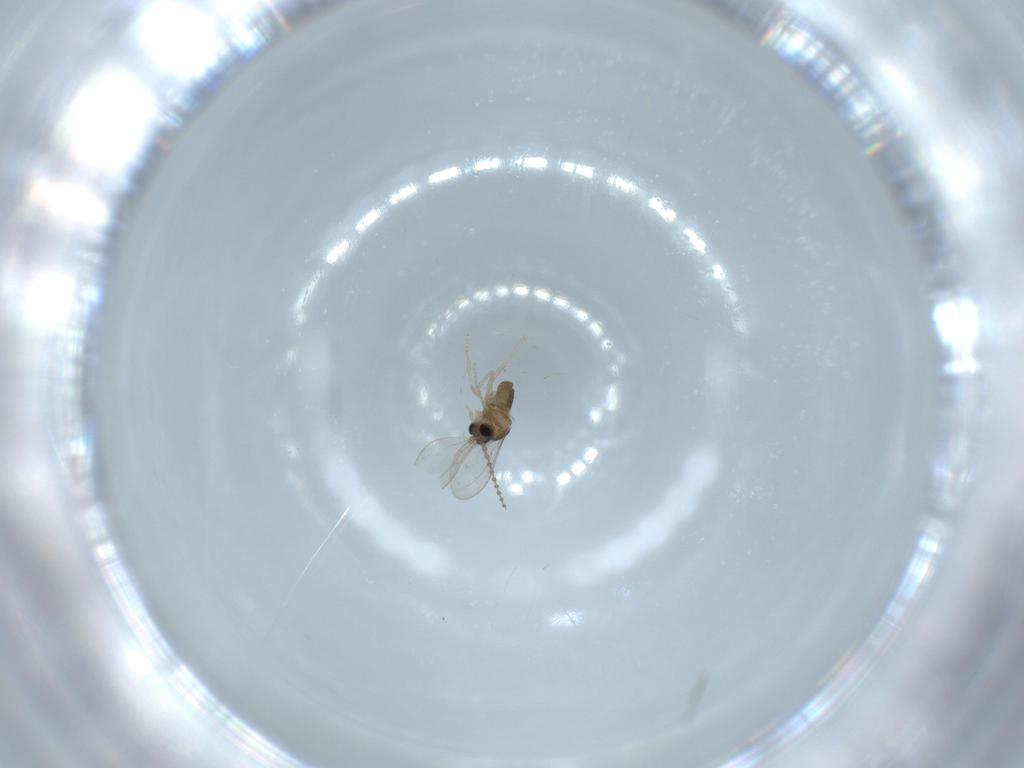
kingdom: Animalia
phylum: Arthropoda
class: Insecta
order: Diptera
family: Cecidomyiidae
